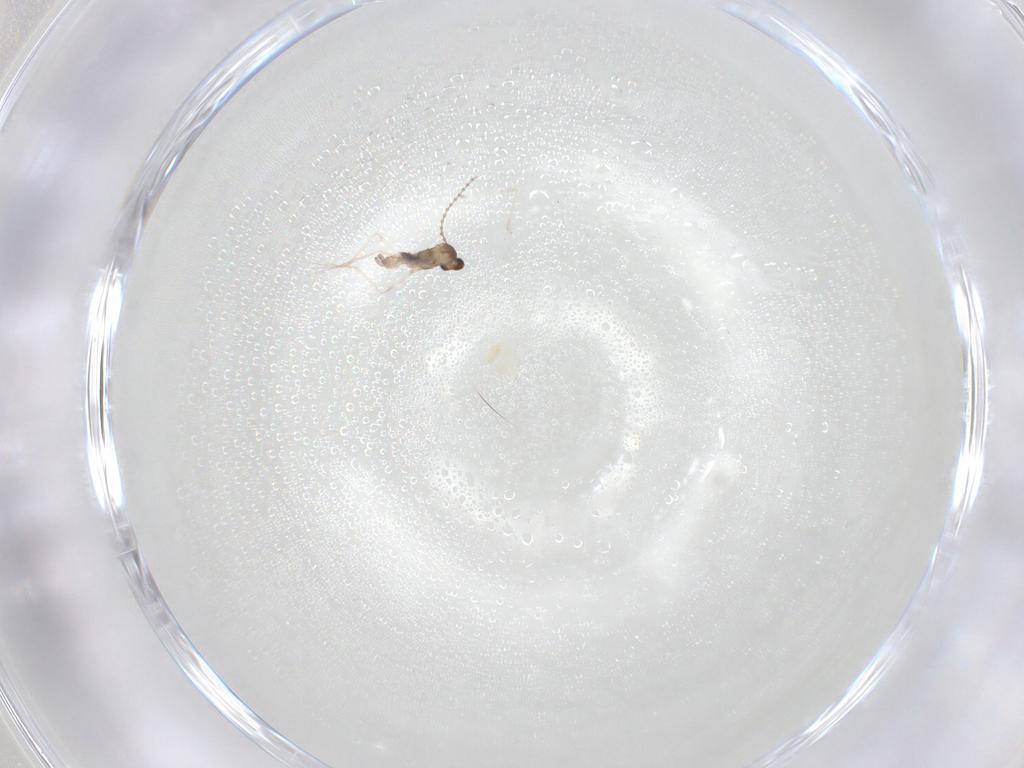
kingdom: Animalia
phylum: Arthropoda
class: Insecta
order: Diptera
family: Cecidomyiidae
